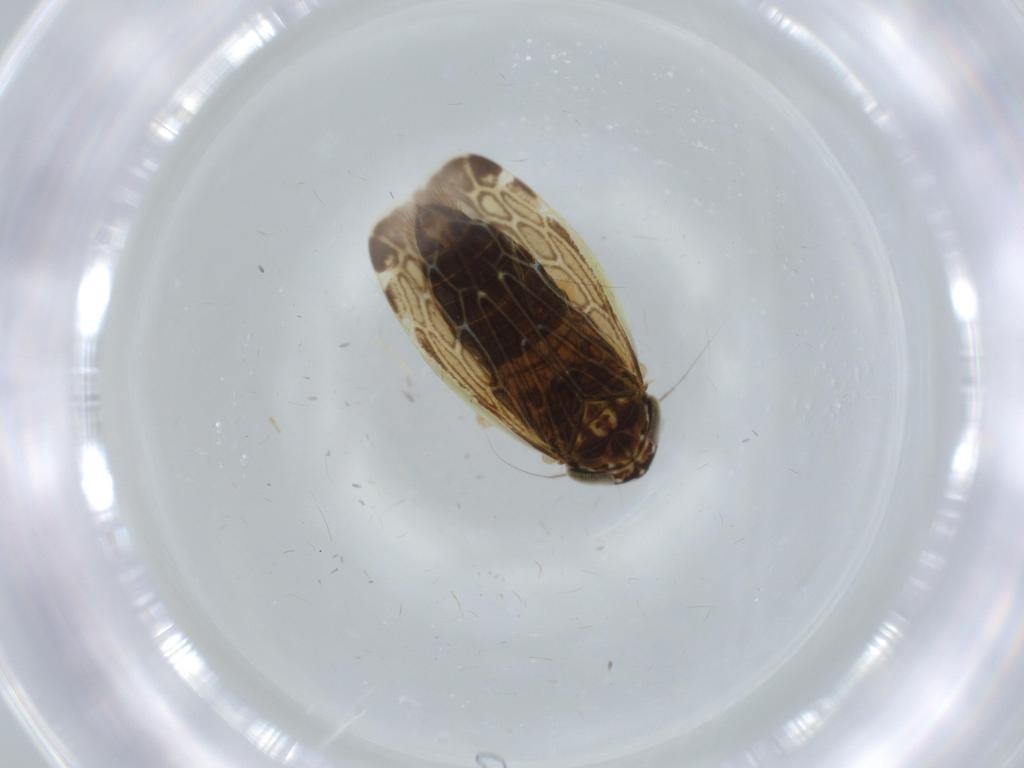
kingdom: Animalia
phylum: Arthropoda
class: Insecta
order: Hemiptera
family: Cicadellidae
